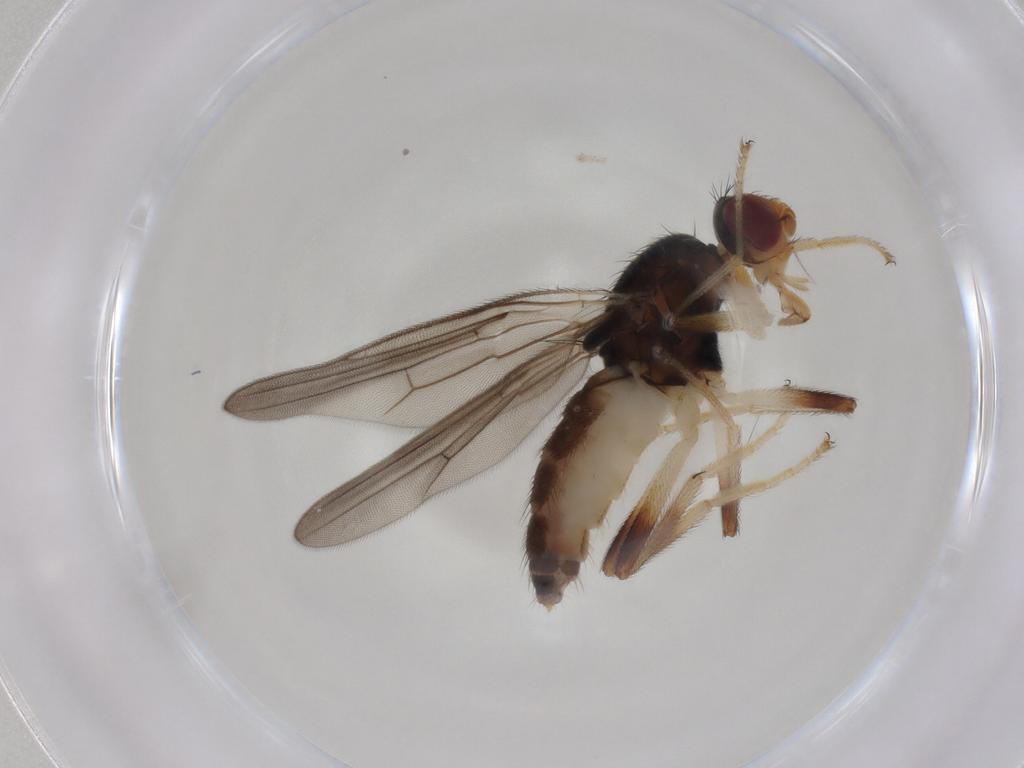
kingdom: Animalia
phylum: Arthropoda
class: Insecta
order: Diptera
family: Chloropidae
